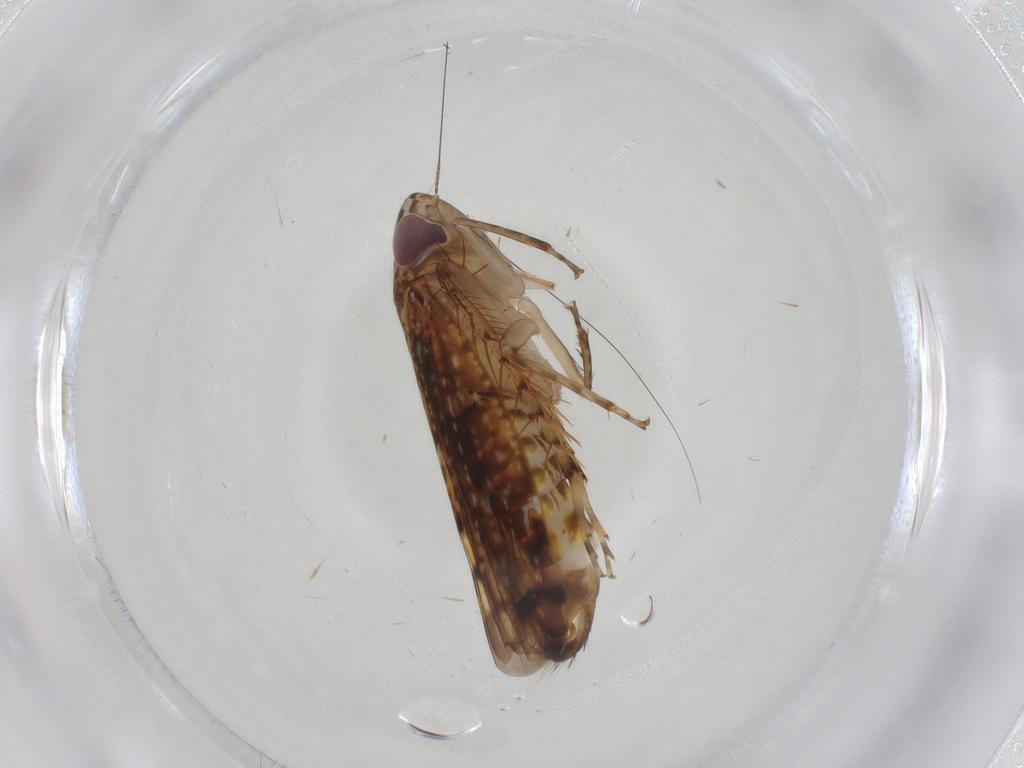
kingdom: Animalia
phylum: Arthropoda
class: Insecta
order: Hemiptera
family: Cicadellidae
